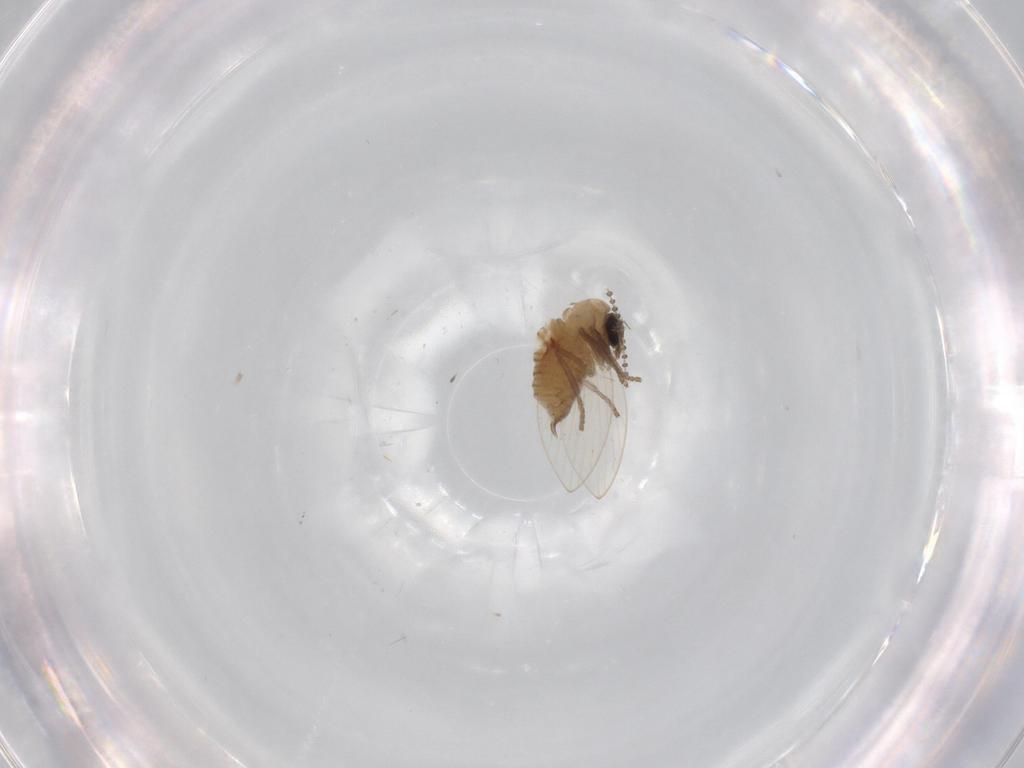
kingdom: Animalia
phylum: Arthropoda
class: Insecta
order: Diptera
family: Psychodidae
